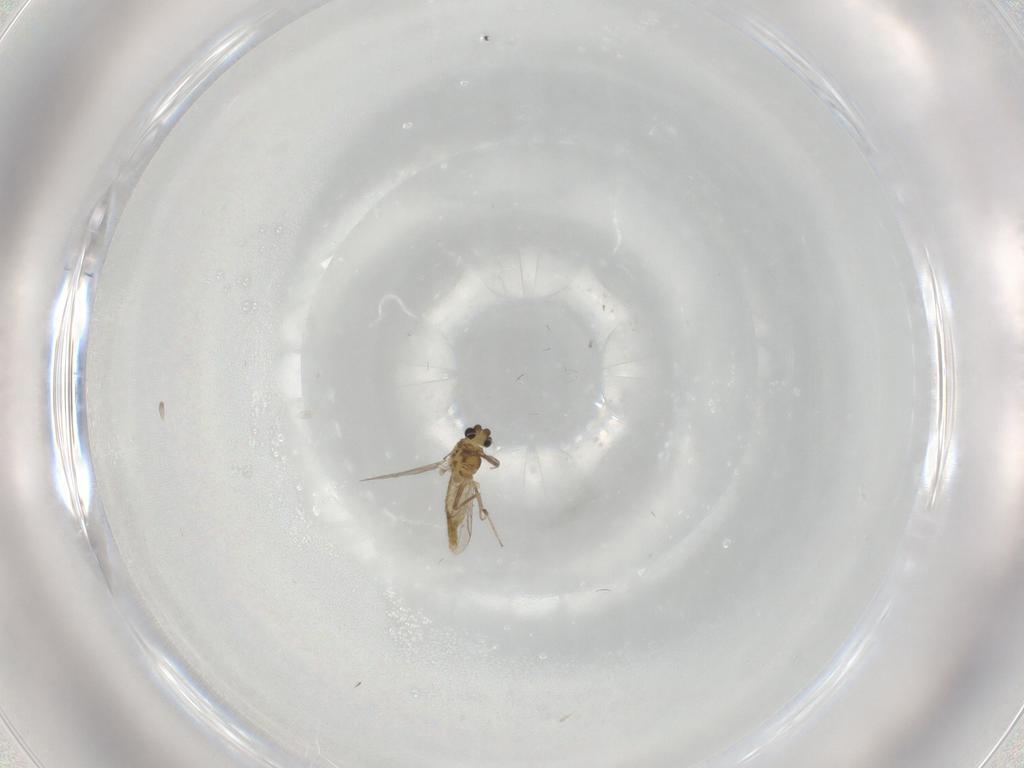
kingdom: Animalia
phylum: Arthropoda
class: Insecta
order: Diptera
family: Chironomidae
